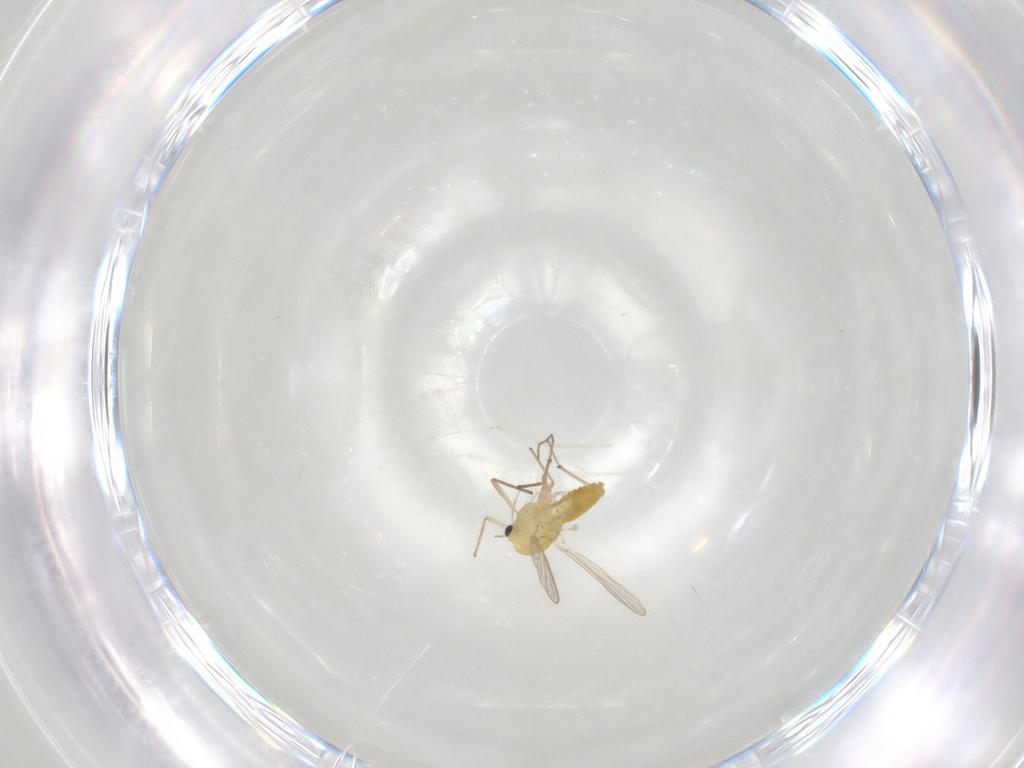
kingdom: Animalia
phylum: Arthropoda
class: Insecta
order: Diptera
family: Chironomidae
